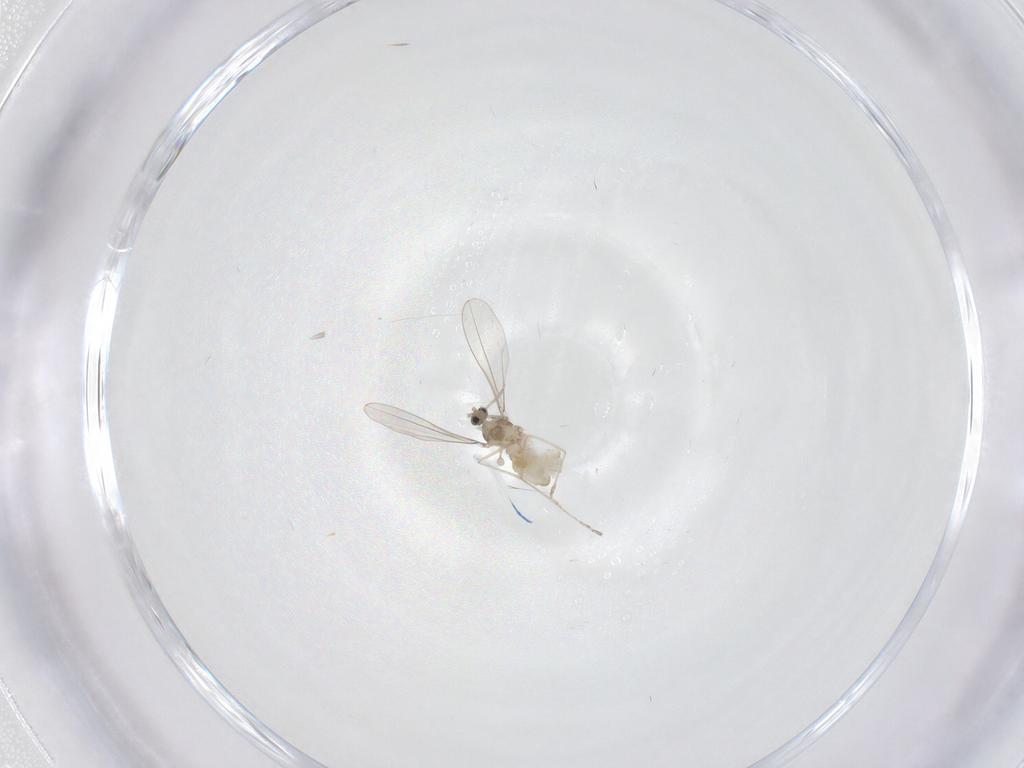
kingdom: Animalia
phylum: Arthropoda
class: Insecta
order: Diptera
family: Cecidomyiidae
